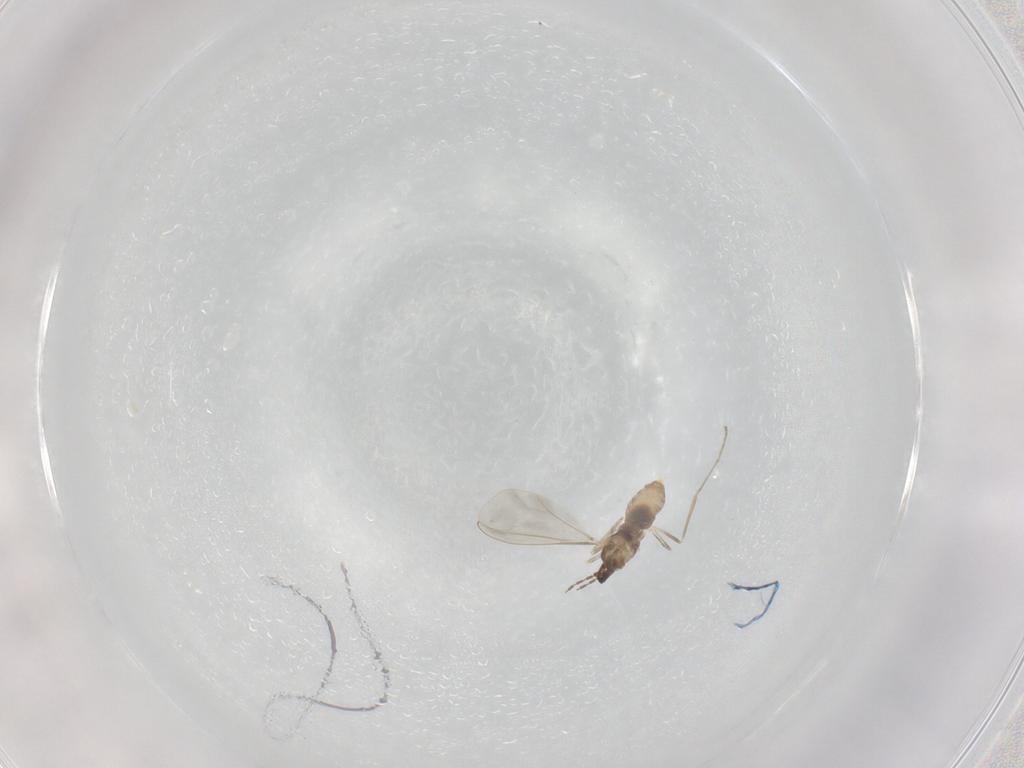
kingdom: Animalia
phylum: Arthropoda
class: Insecta
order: Diptera
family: Cecidomyiidae
